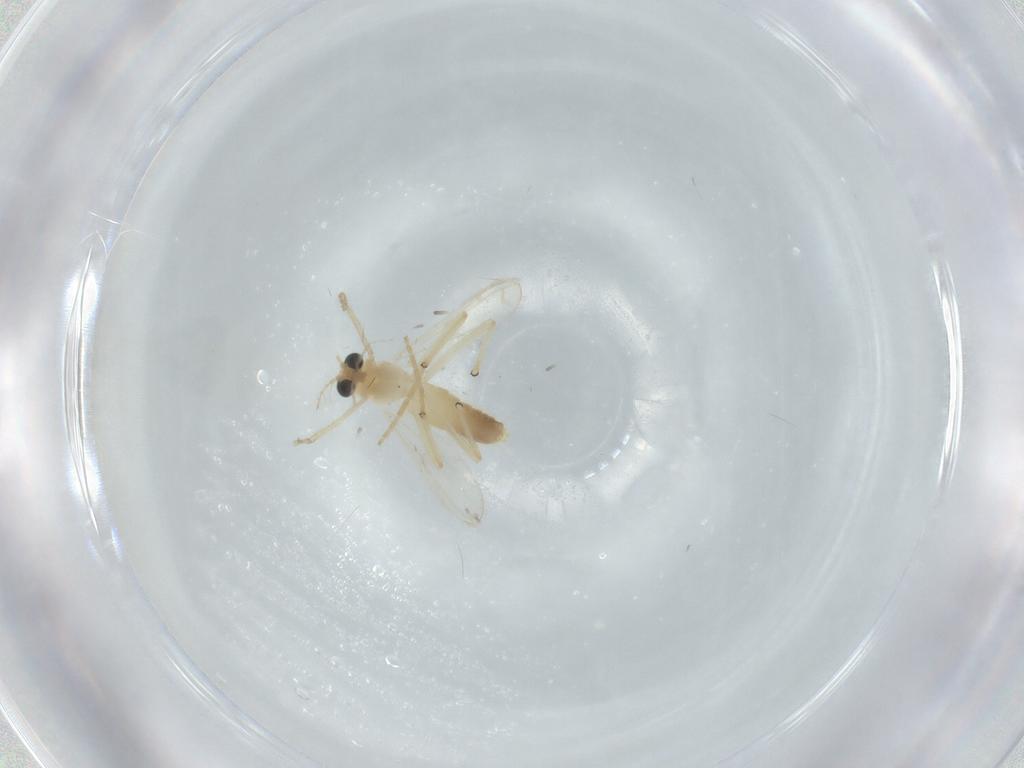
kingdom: Animalia
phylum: Arthropoda
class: Insecta
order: Diptera
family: Chironomidae
